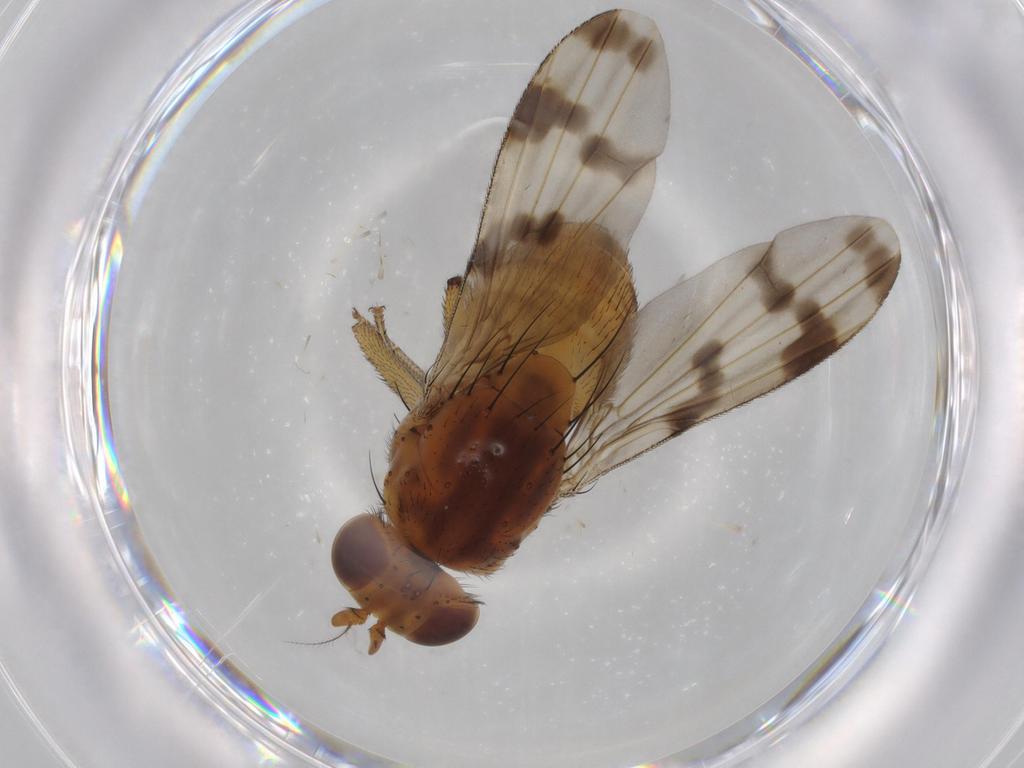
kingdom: Animalia
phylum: Arthropoda
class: Insecta
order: Diptera
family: Lauxaniidae
